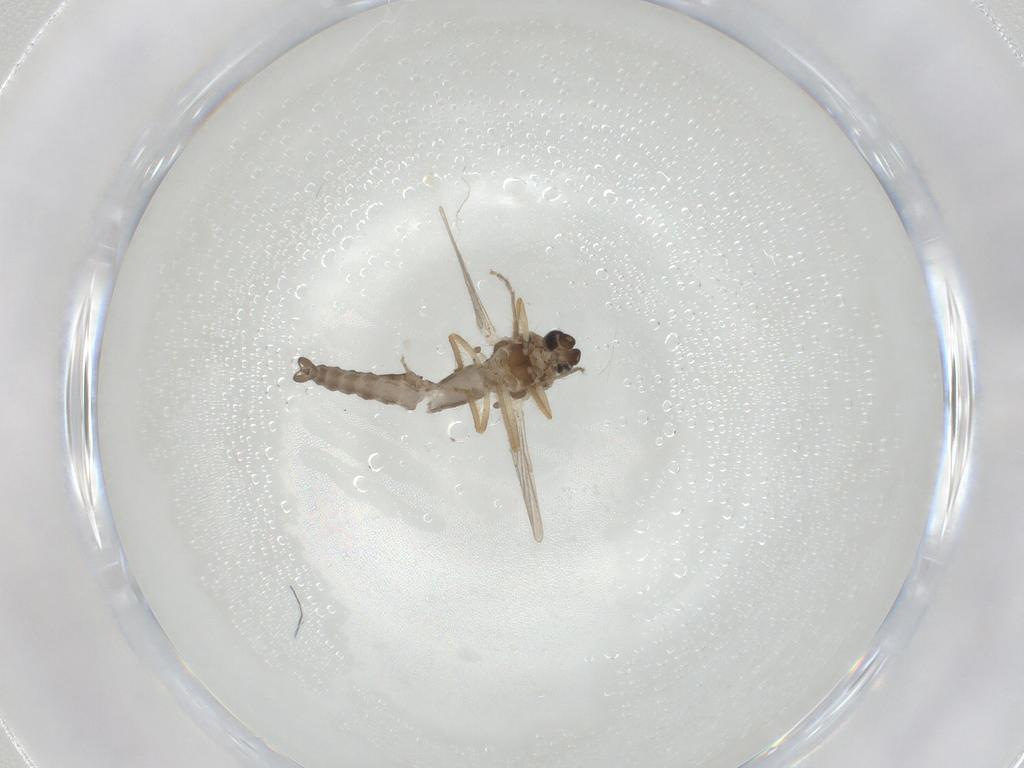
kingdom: Animalia
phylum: Arthropoda
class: Insecta
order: Diptera
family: Ceratopogonidae
